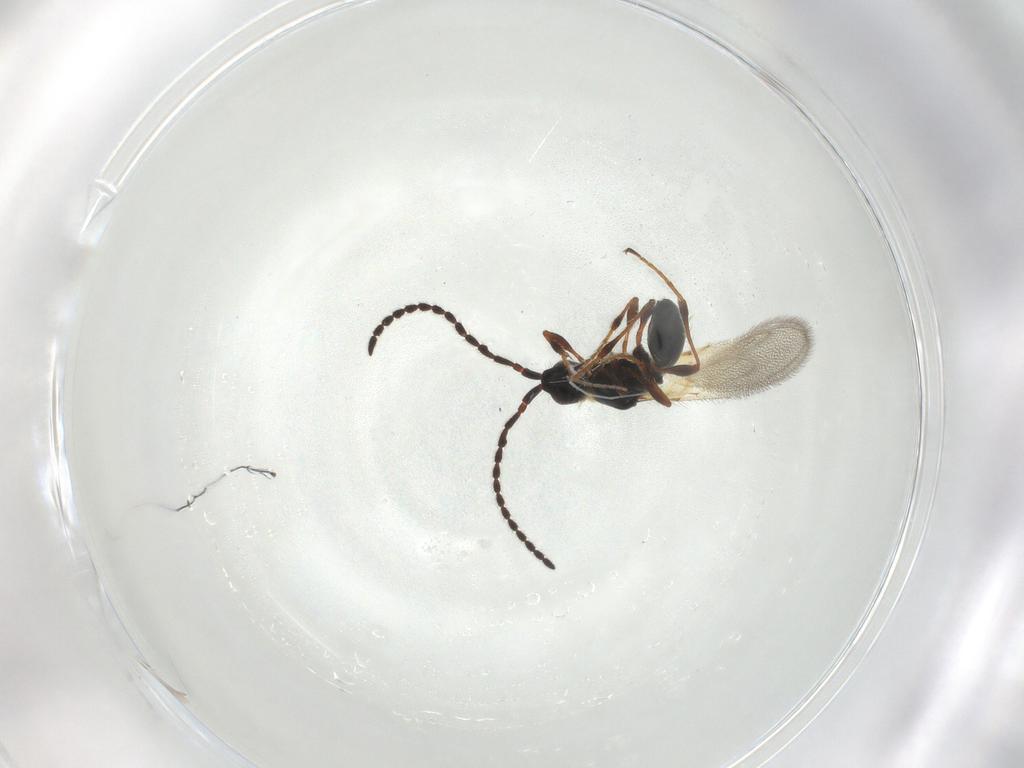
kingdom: Animalia
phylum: Arthropoda
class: Insecta
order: Hymenoptera
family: Diapriidae
